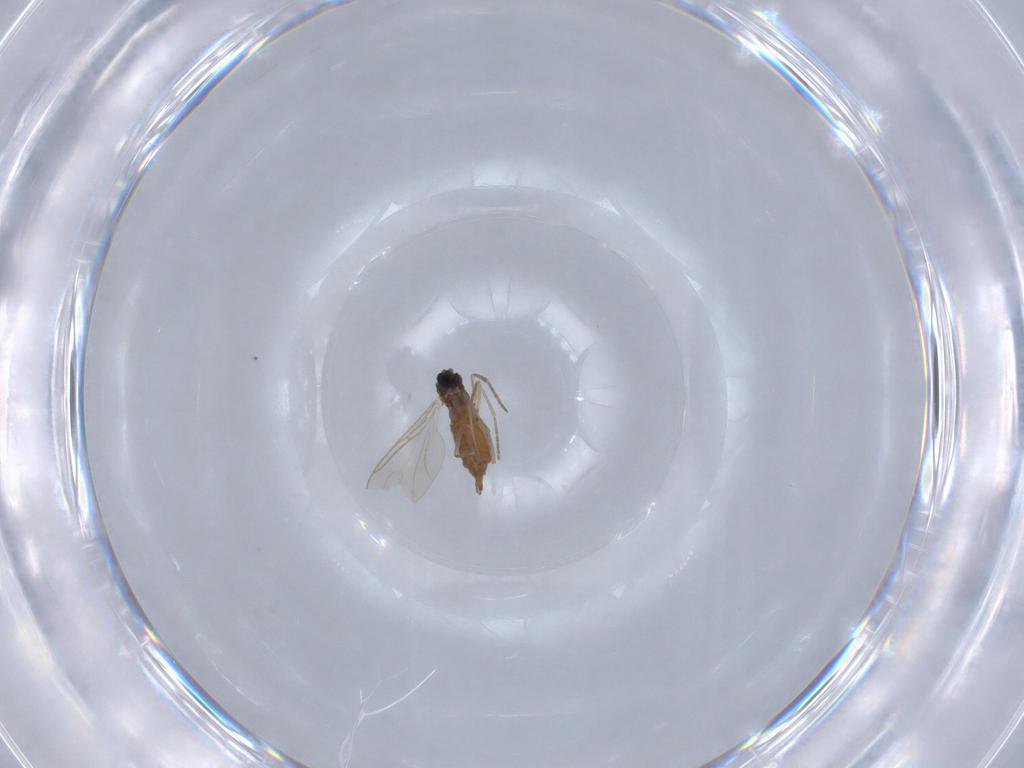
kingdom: Animalia
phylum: Arthropoda
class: Insecta
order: Diptera
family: Sciaridae
